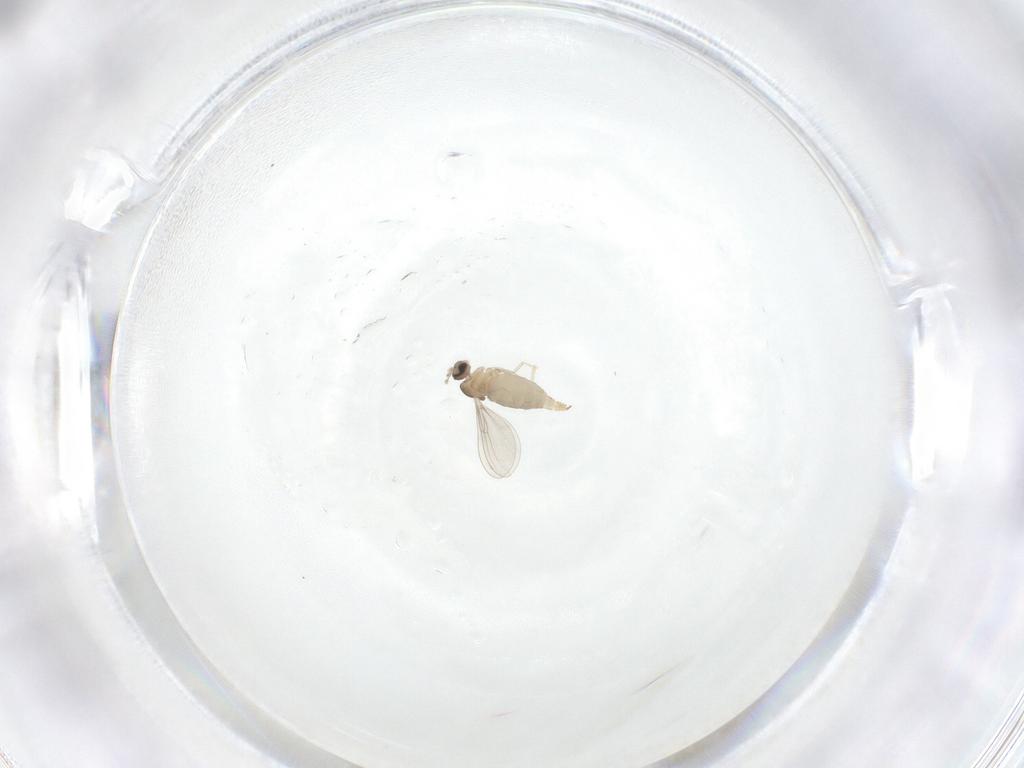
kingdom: Animalia
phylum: Arthropoda
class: Insecta
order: Diptera
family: Cecidomyiidae
